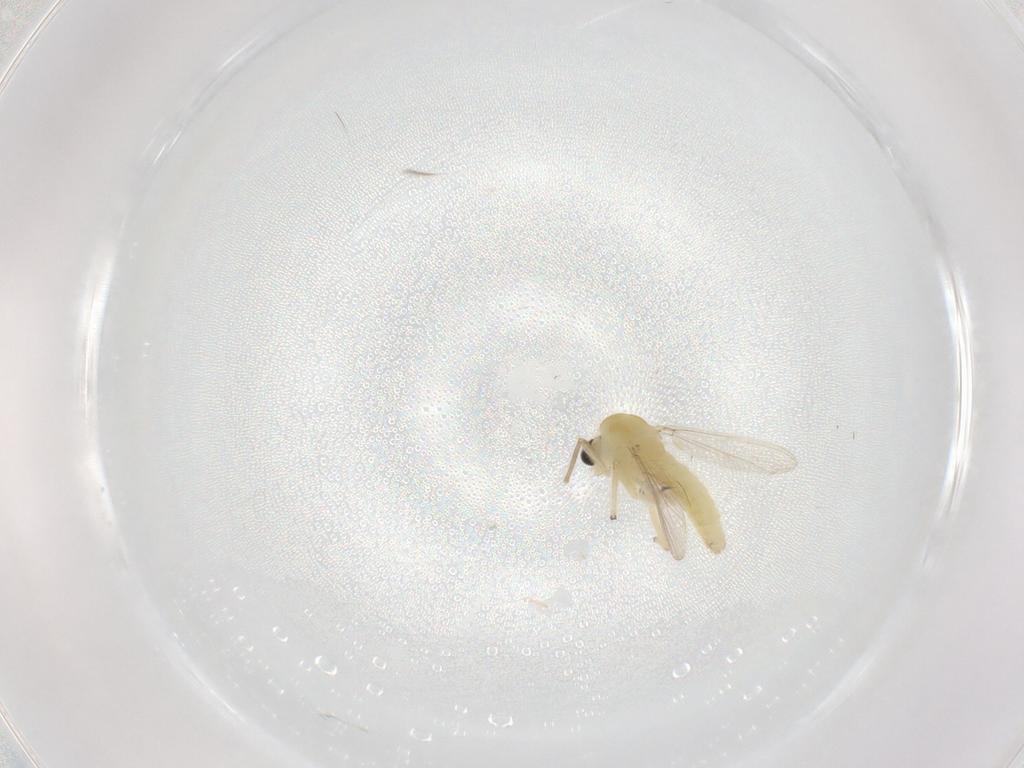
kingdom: Animalia
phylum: Arthropoda
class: Insecta
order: Diptera
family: Chironomidae
